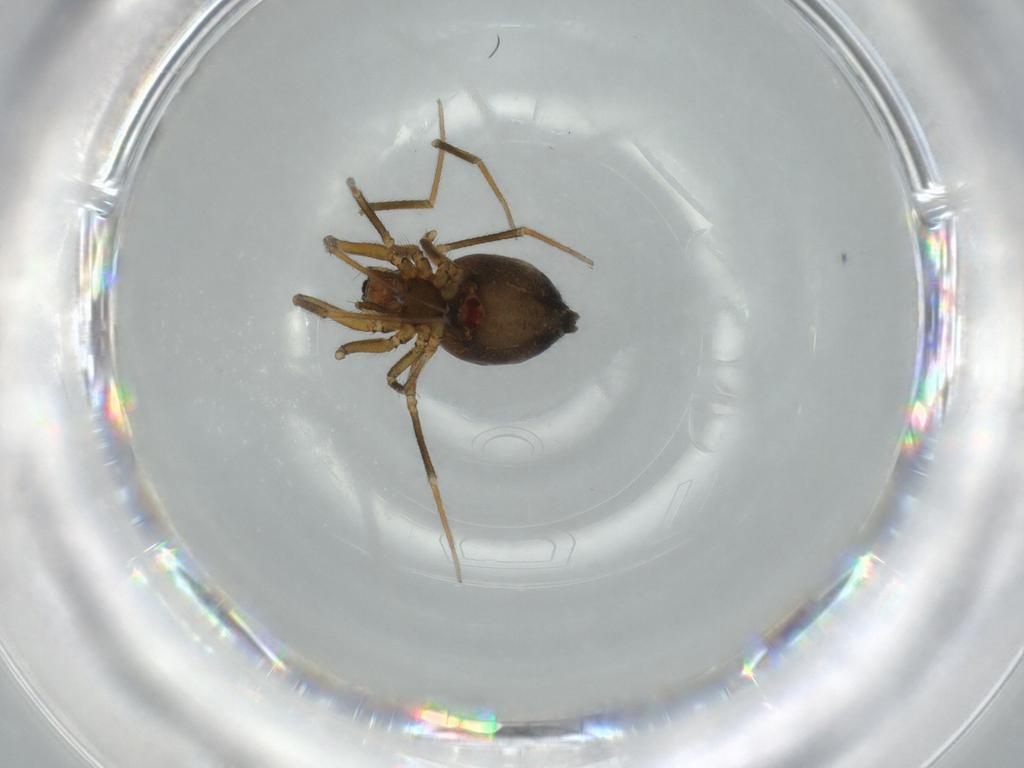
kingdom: Animalia
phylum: Arthropoda
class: Arachnida
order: Araneae
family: Linyphiidae
